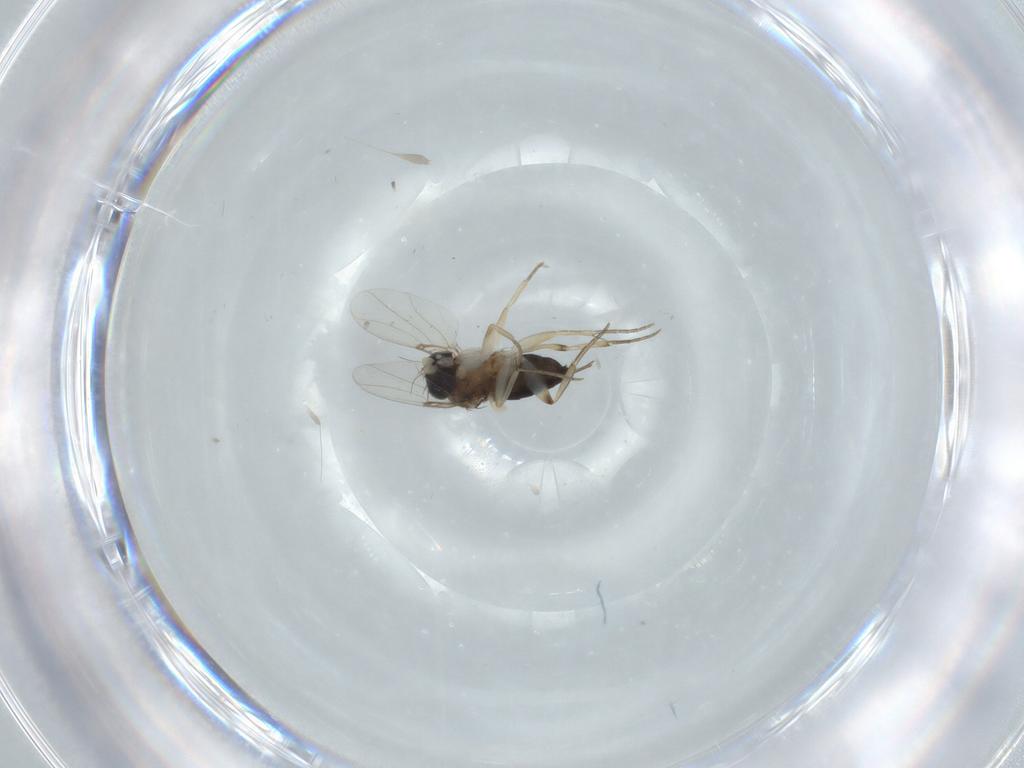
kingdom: Animalia
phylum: Arthropoda
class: Insecta
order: Diptera
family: Phoridae
